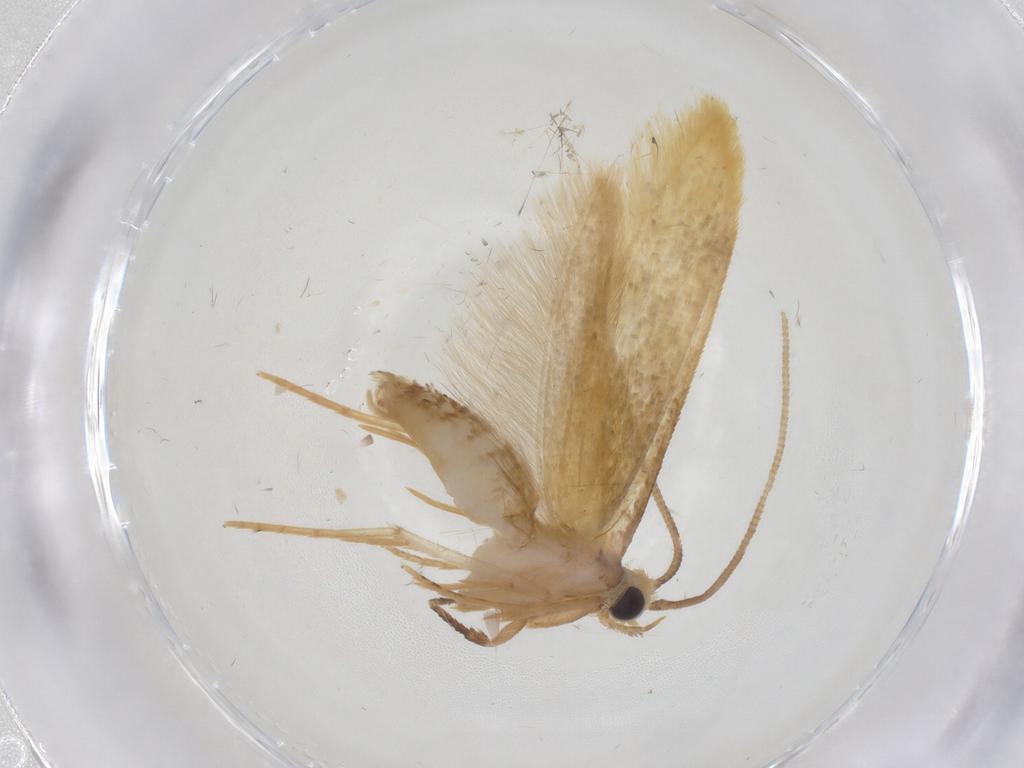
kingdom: Animalia
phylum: Arthropoda
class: Insecta
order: Lepidoptera
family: Tineidae
